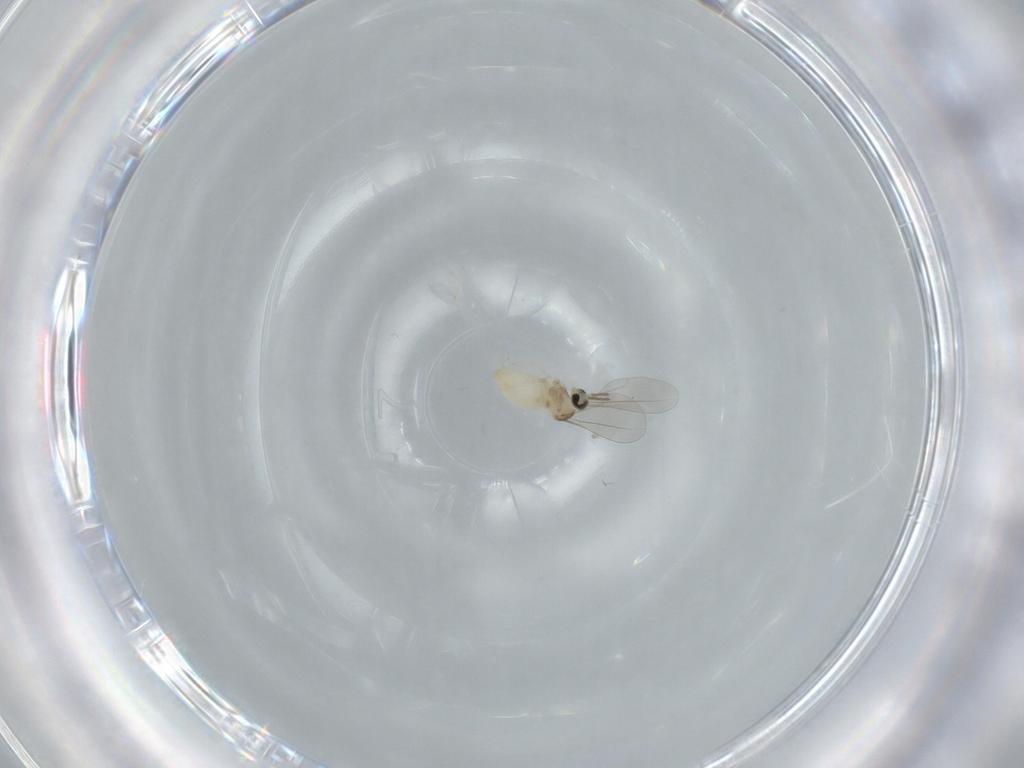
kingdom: Animalia
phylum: Arthropoda
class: Insecta
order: Diptera
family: Cecidomyiidae
